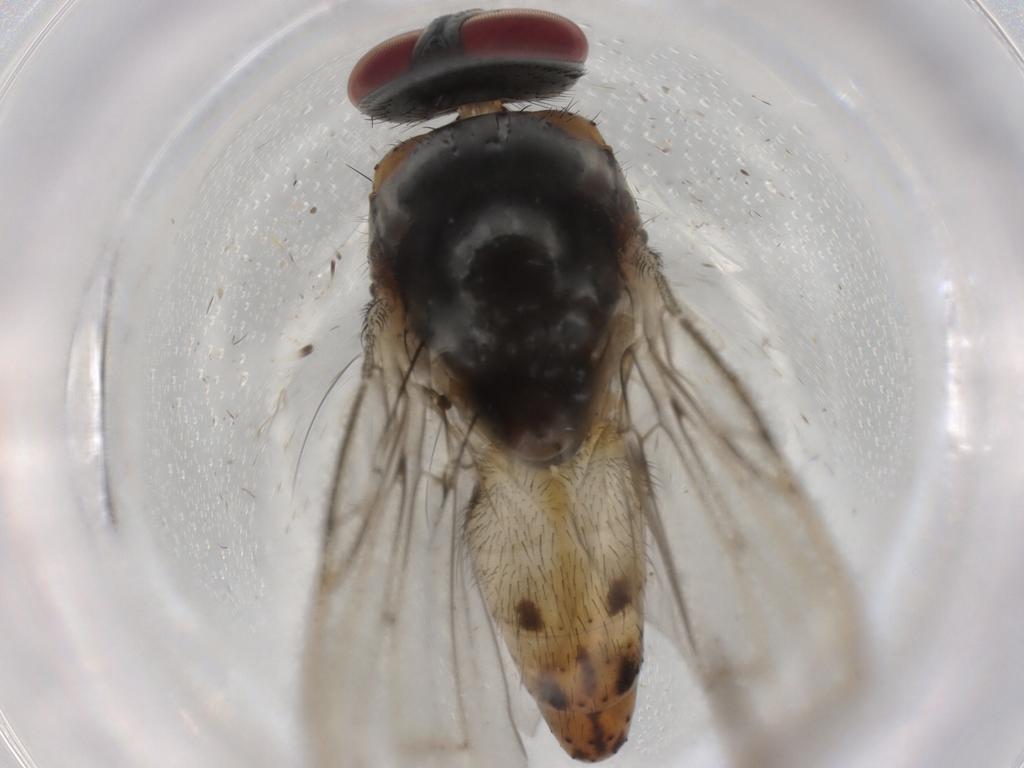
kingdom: Animalia
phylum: Arthropoda
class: Insecta
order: Diptera
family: Muscidae
